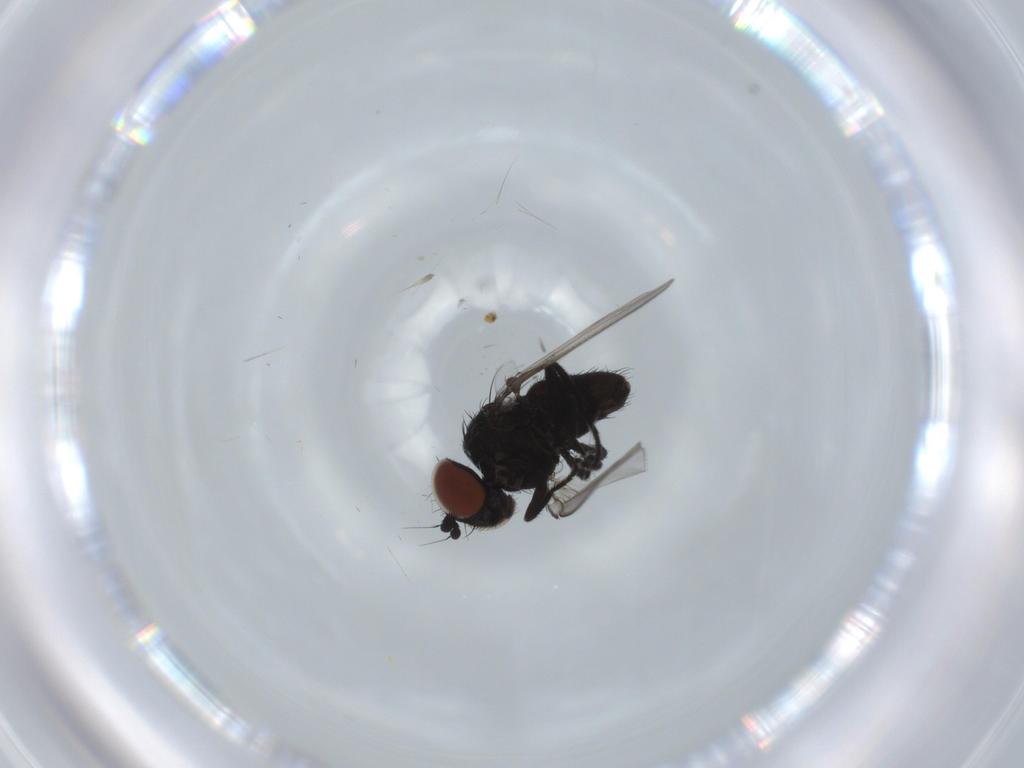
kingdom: Animalia
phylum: Arthropoda
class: Insecta
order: Diptera
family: Milichiidae
